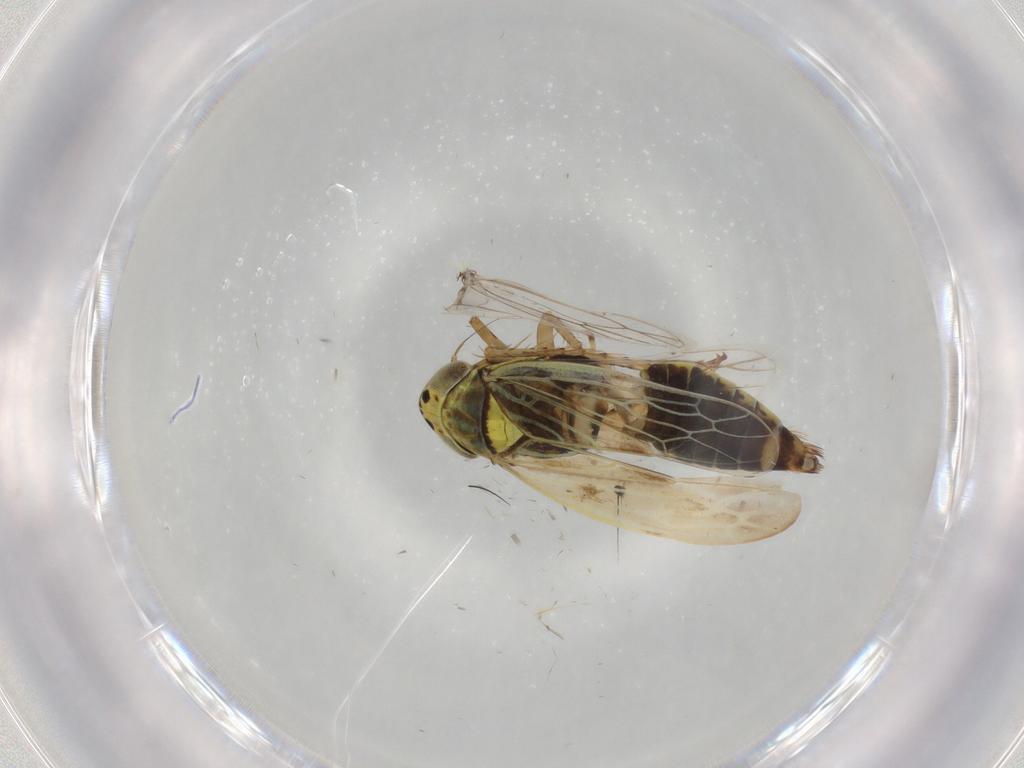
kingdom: Animalia
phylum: Arthropoda
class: Insecta
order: Hemiptera
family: Cicadellidae
